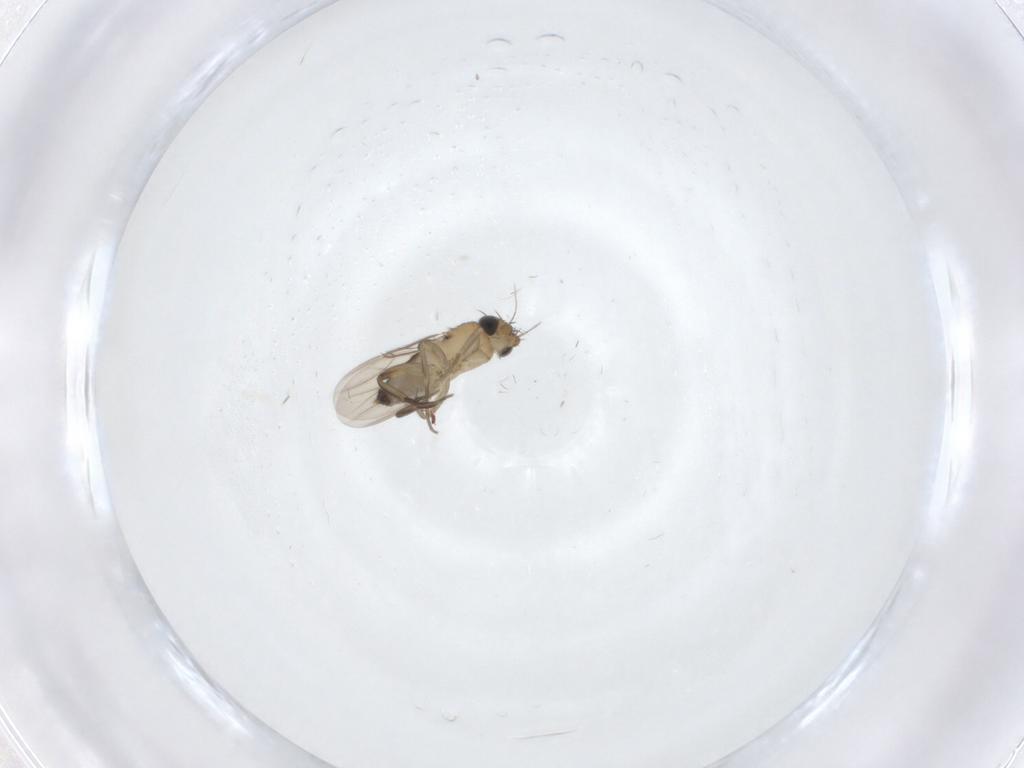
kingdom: Animalia
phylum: Arthropoda
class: Insecta
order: Diptera
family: Phoridae
